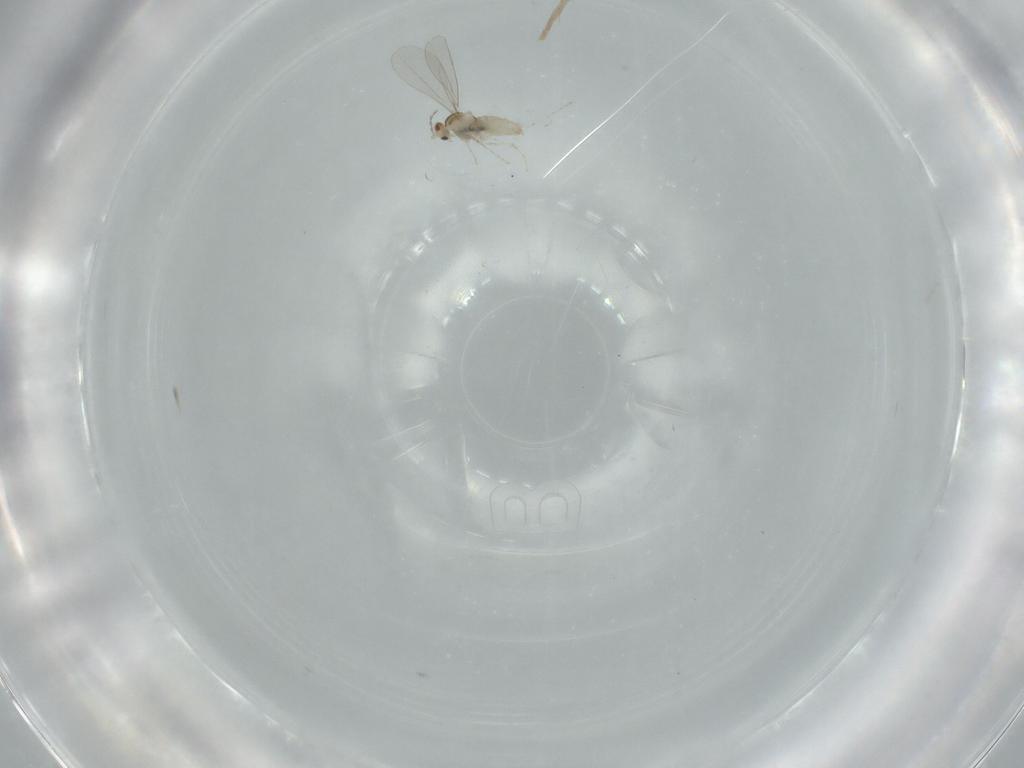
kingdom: Animalia
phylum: Arthropoda
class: Insecta
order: Diptera
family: Cecidomyiidae
